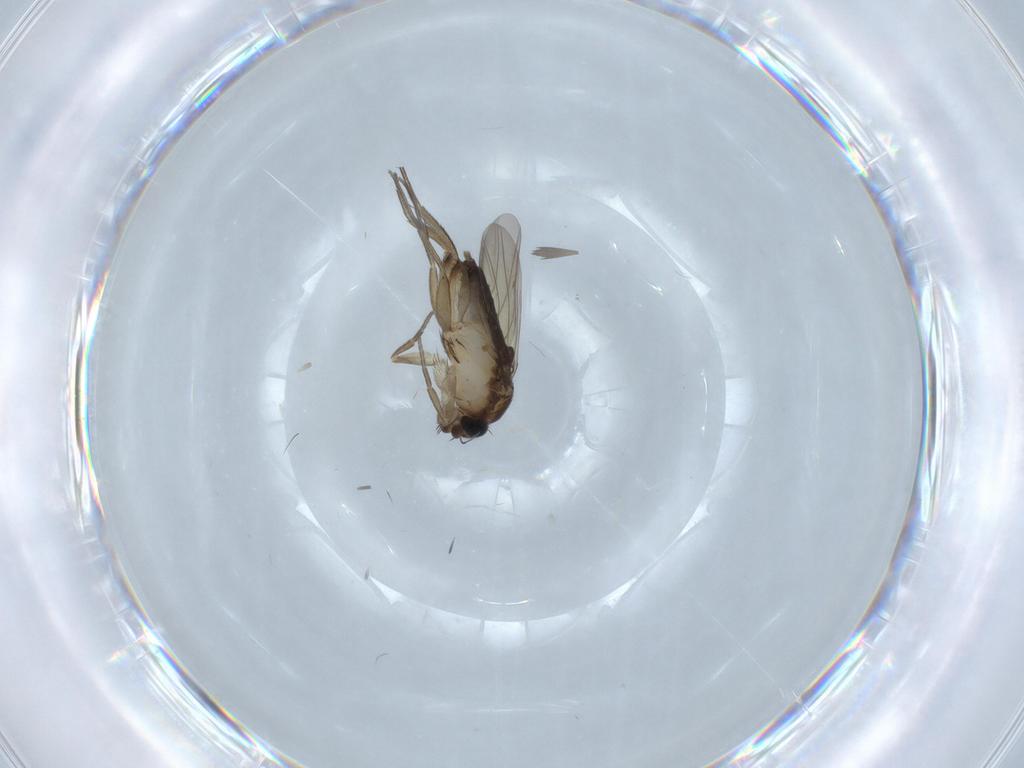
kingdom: Animalia
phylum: Arthropoda
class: Insecta
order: Diptera
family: Phoridae
